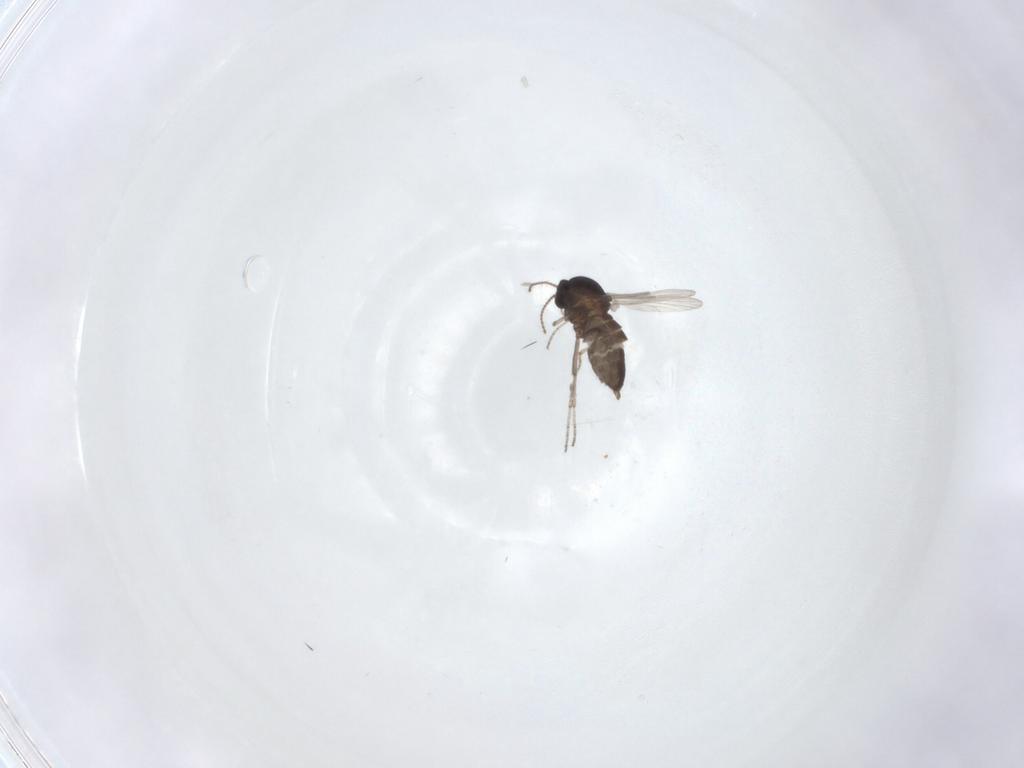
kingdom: Animalia
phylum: Arthropoda
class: Insecta
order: Diptera
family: Ceratopogonidae
